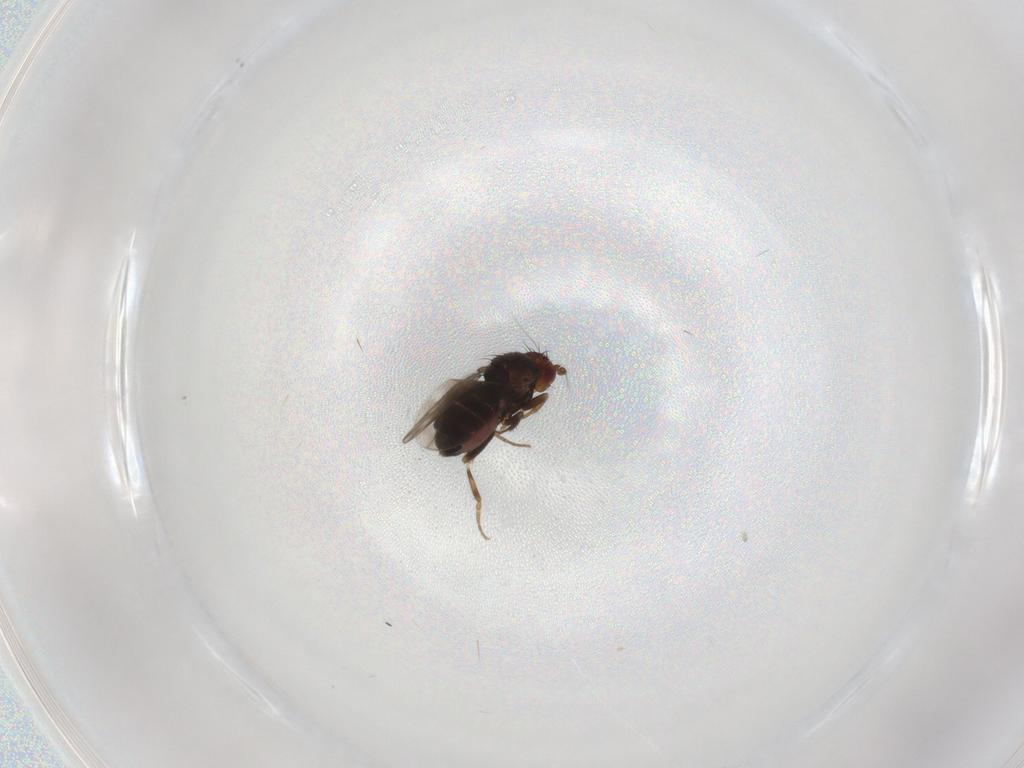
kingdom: Animalia
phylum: Arthropoda
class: Insecta
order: Diptera
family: Sphaeroceridae
